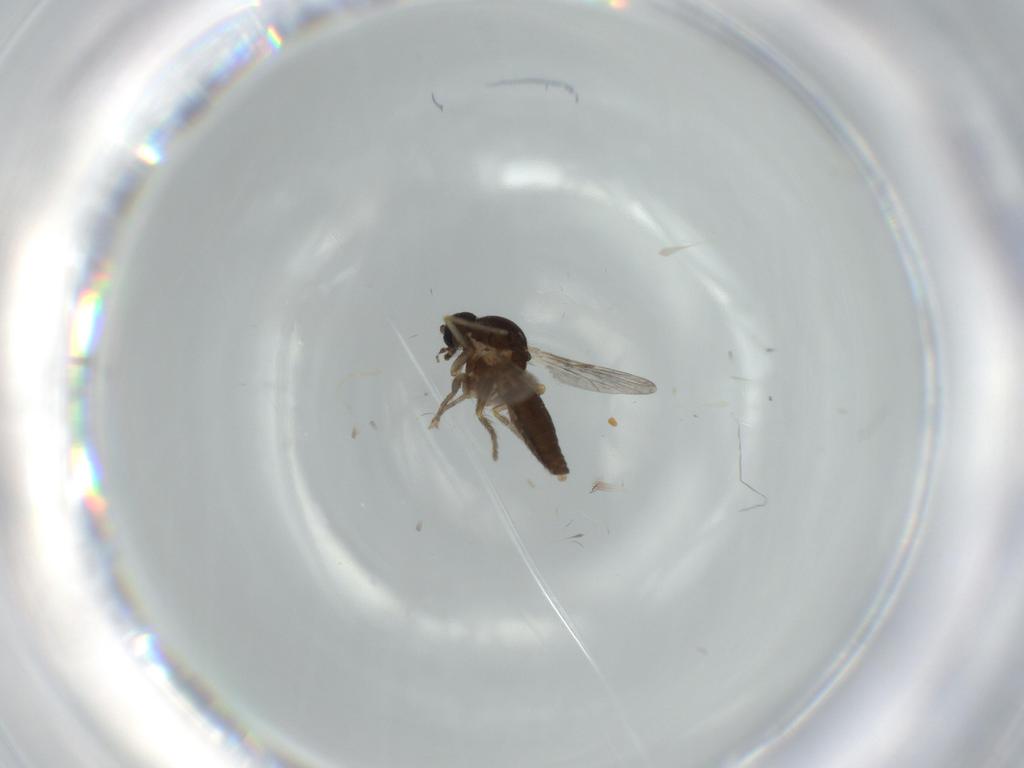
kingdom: Animalia
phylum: Arthropoda
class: Insecta
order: Diptera
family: Ceratopogonidae
